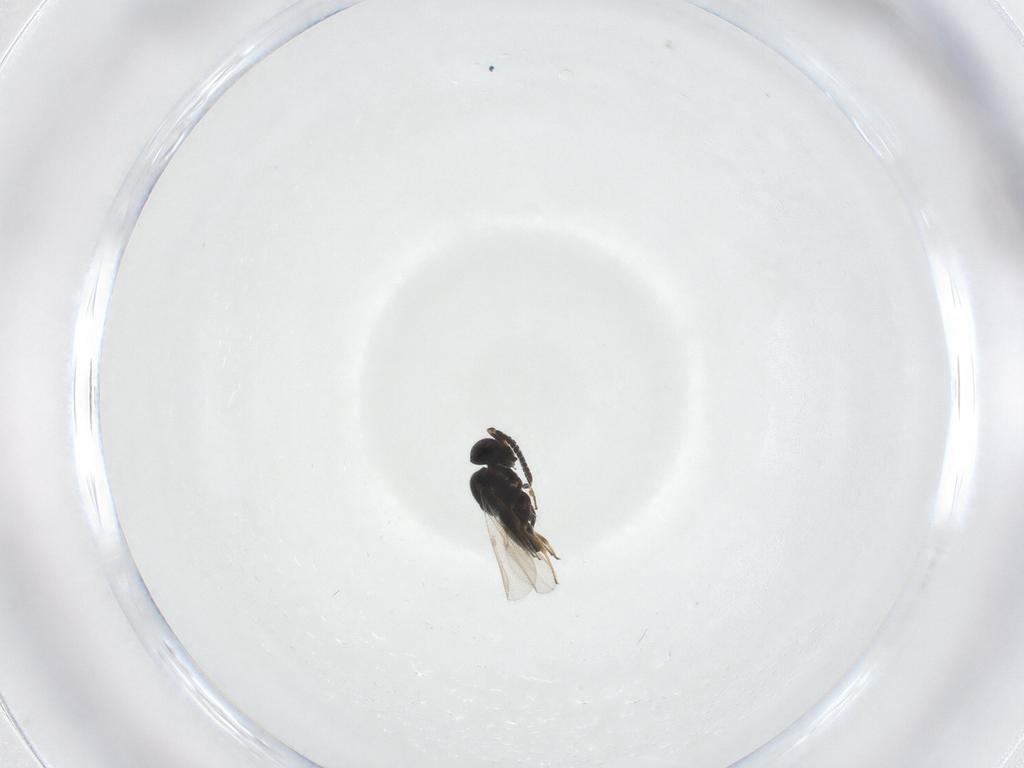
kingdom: Animalia
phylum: Arthropoda
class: Insecta
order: Hymenoptera
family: Scelionidae
